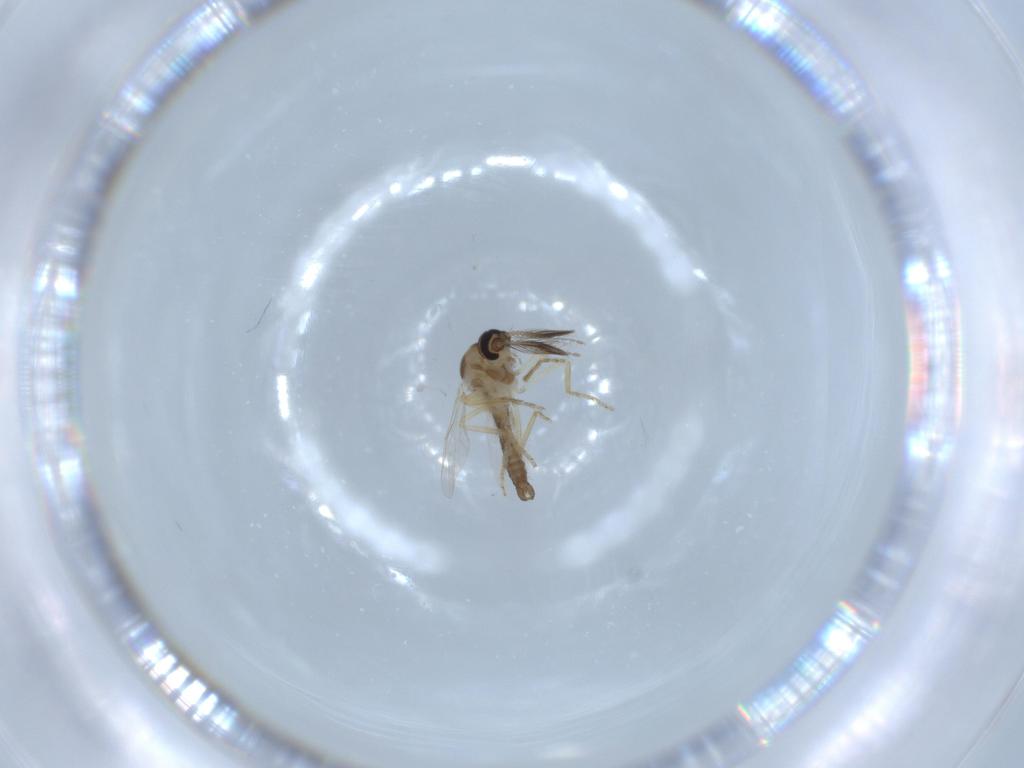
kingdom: Animalia
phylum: Arthropoda
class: Insecta
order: Diptera
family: Ceratopogonidae
